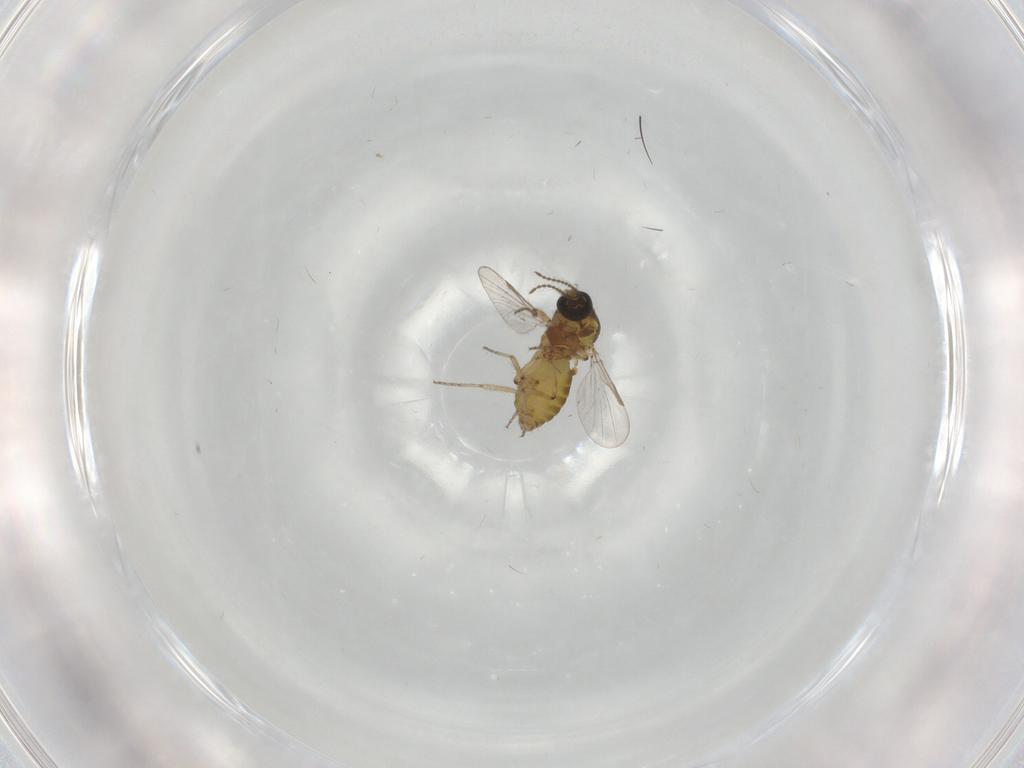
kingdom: Animalia
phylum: Arthropoda
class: Insecta
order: Diptera
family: Ceratopogonidae
